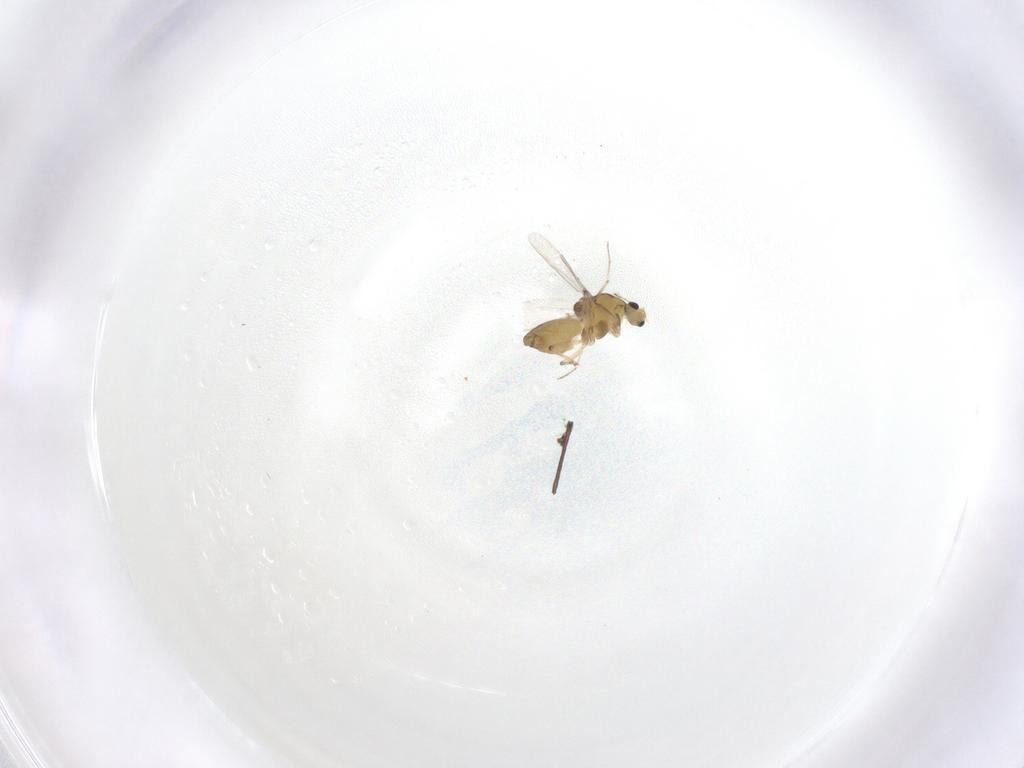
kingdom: Animalia
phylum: Arthropoda
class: Insecta
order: Diptera
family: Chironomidae
